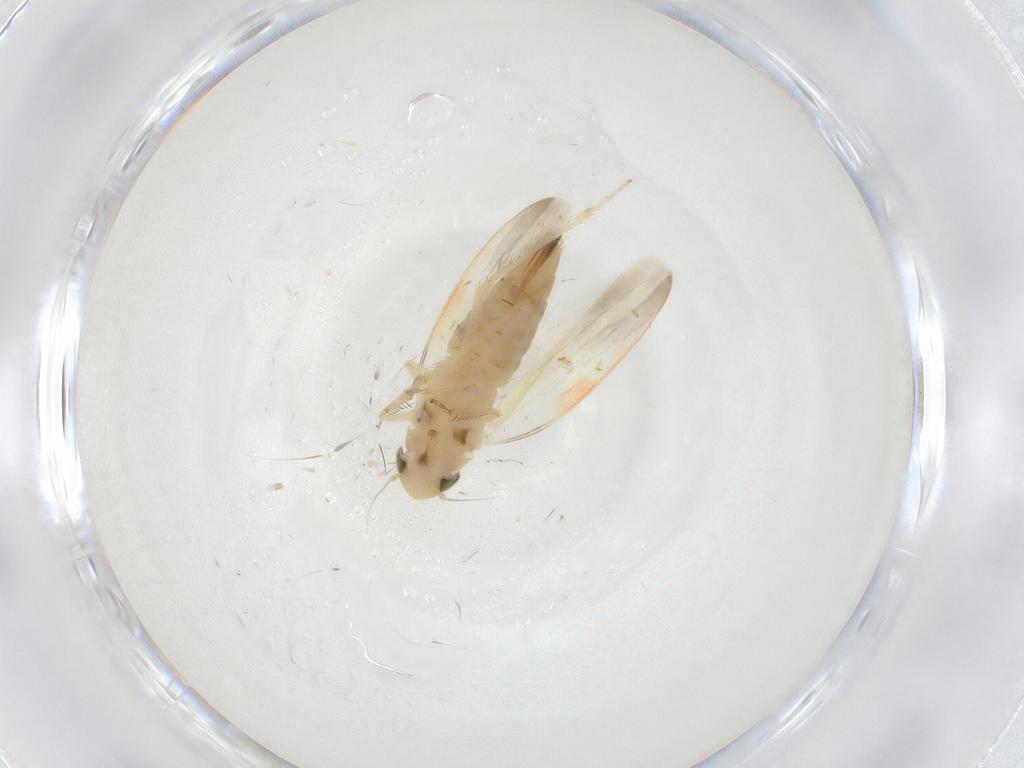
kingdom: Animalia
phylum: Arthropoda
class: Insecta
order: Hemiptera
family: Cicadellidae
